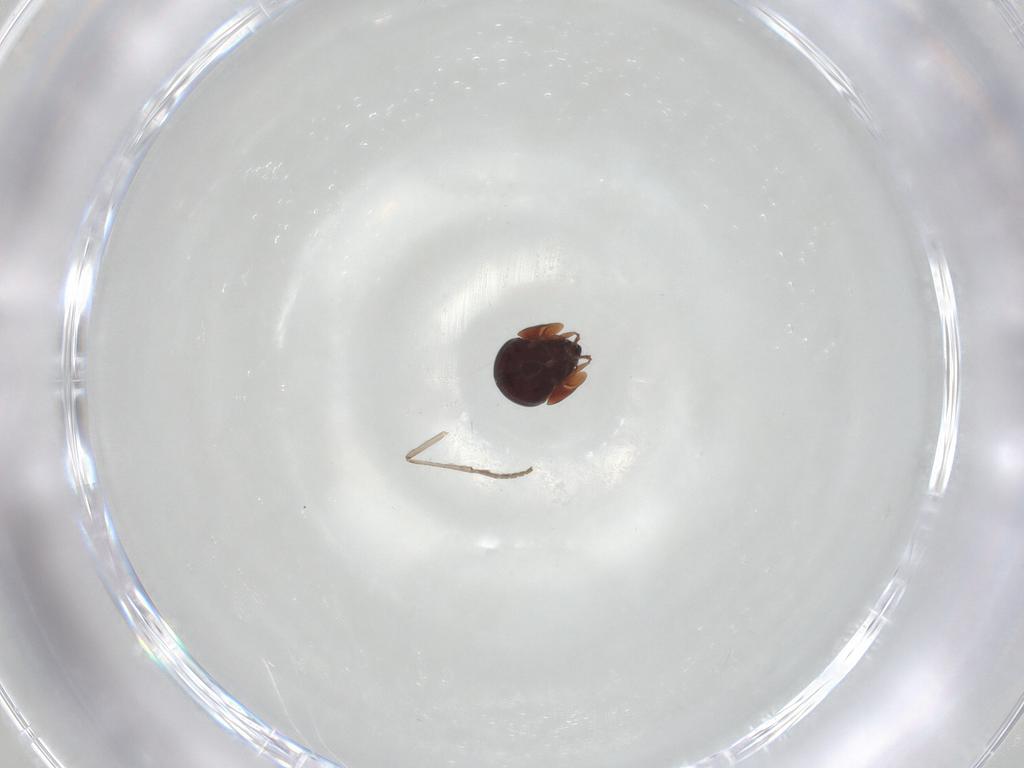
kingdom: Animalia
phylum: Arthropoda
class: Arachnida
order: Sarcoptiformes
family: Galumnidae
